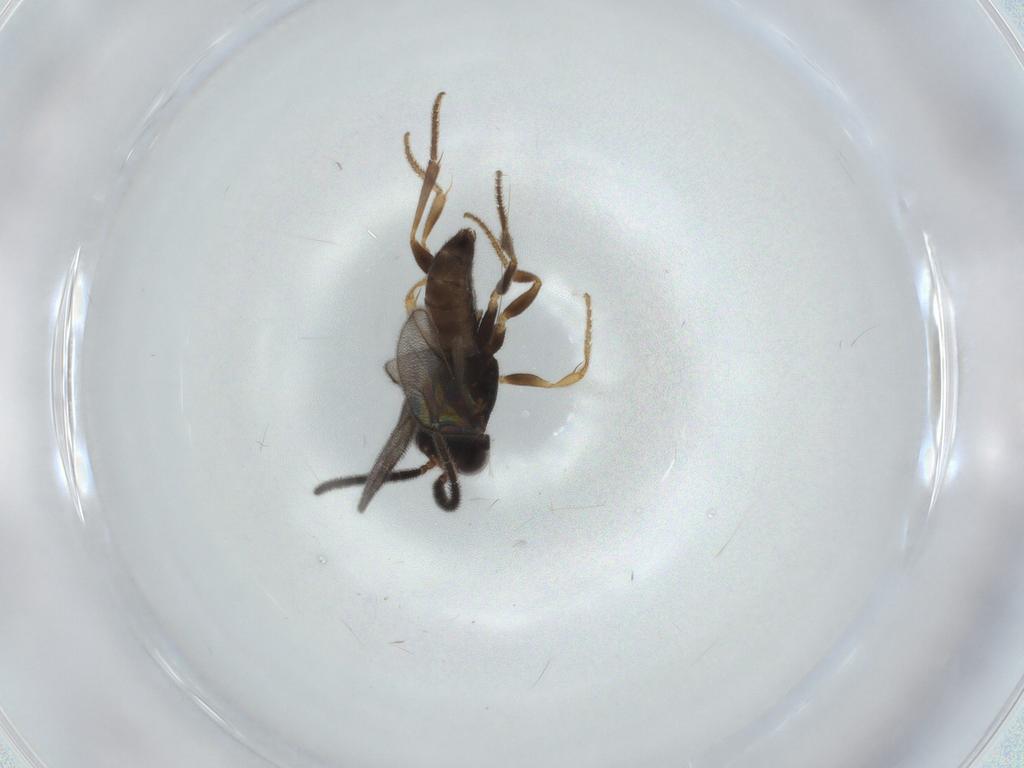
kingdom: Animalia
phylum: Arthropoda
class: Insecta
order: Hymenoptera
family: Dryinidae
